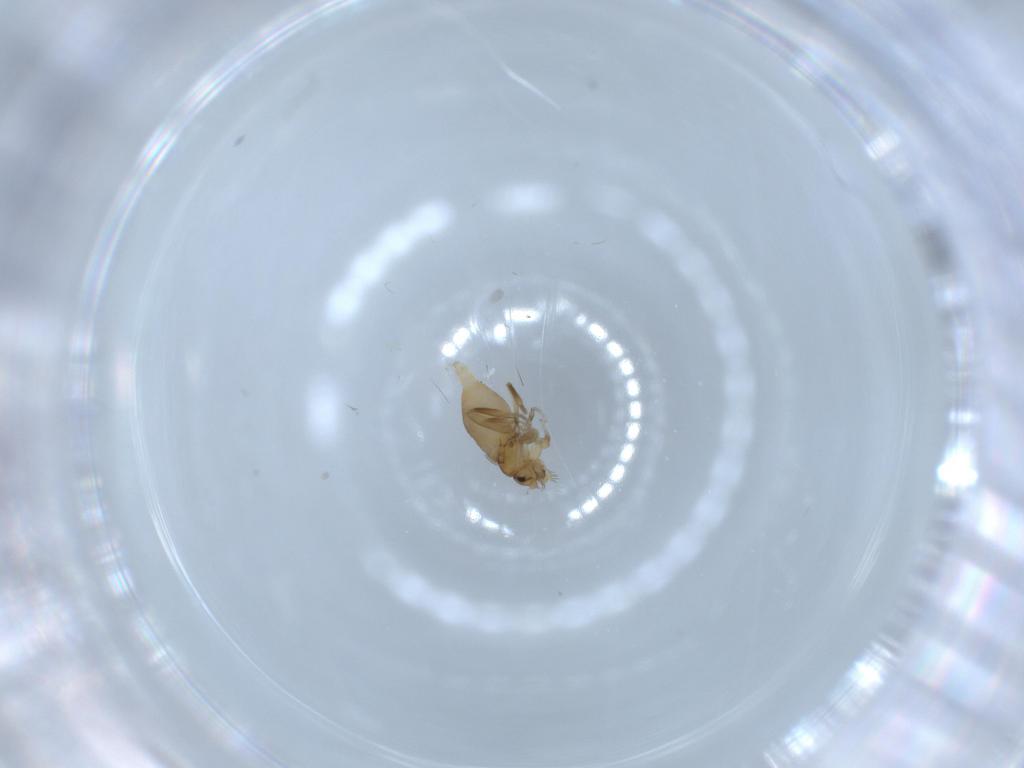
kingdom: Animalia
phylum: Arthropoda
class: Insecta
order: Diptera
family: Phoridae
